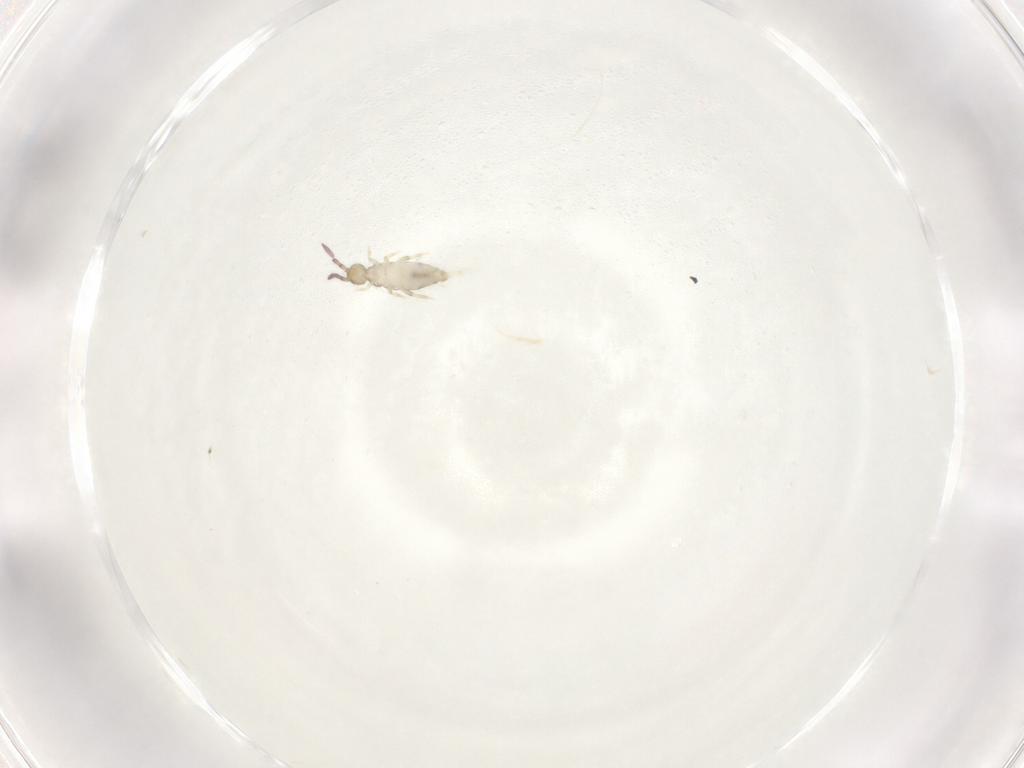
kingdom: Animalia
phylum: Arthropoda
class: Collembola
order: Entomobryomorpha
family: Entomobryidae
